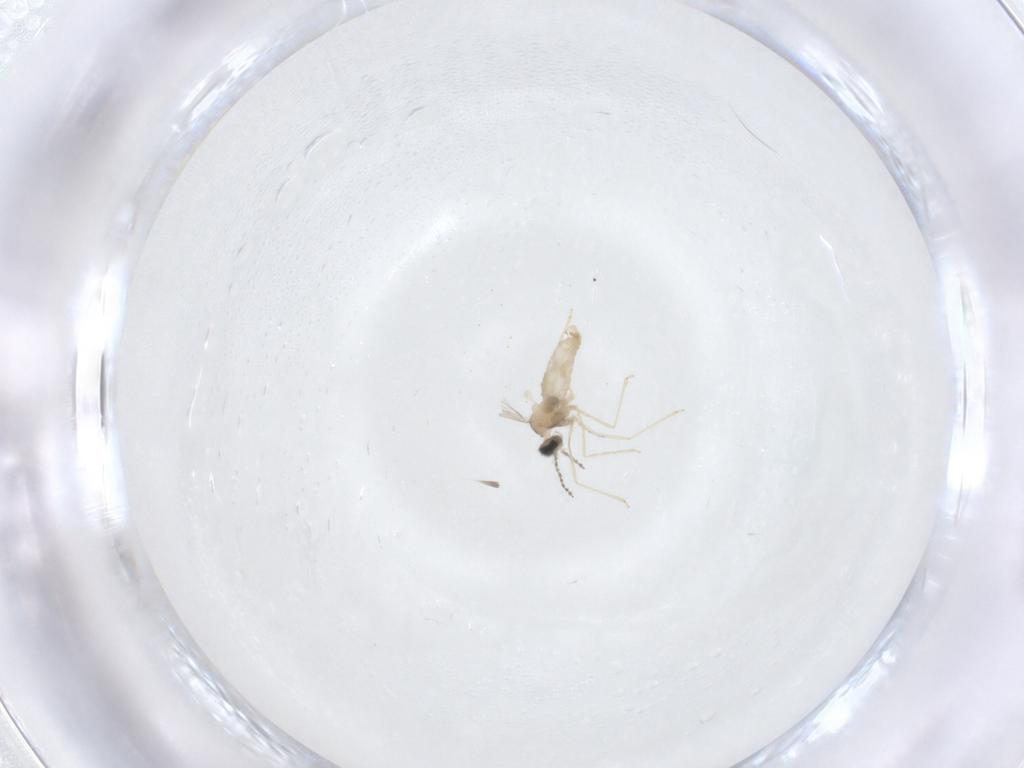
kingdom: Animalia
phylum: Arthropoda
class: Insecta
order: Diptera
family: Cecidomyiidae
